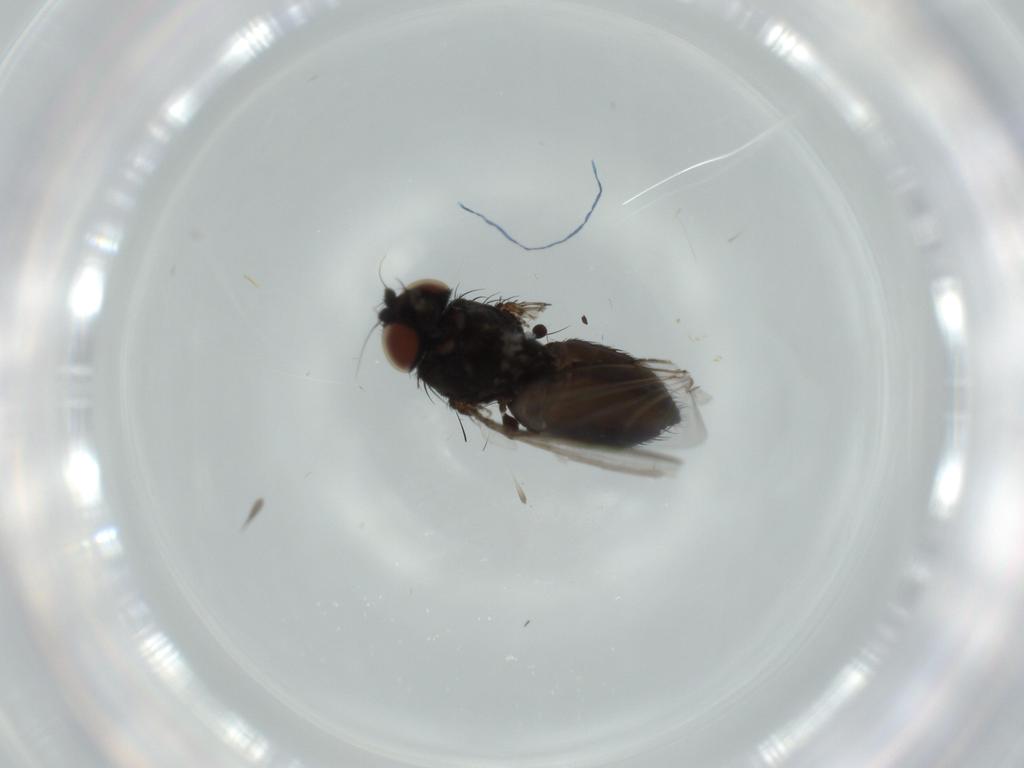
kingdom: Animalia
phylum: Arthropoda
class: Insecta
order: Diptera
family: Milichiidae
